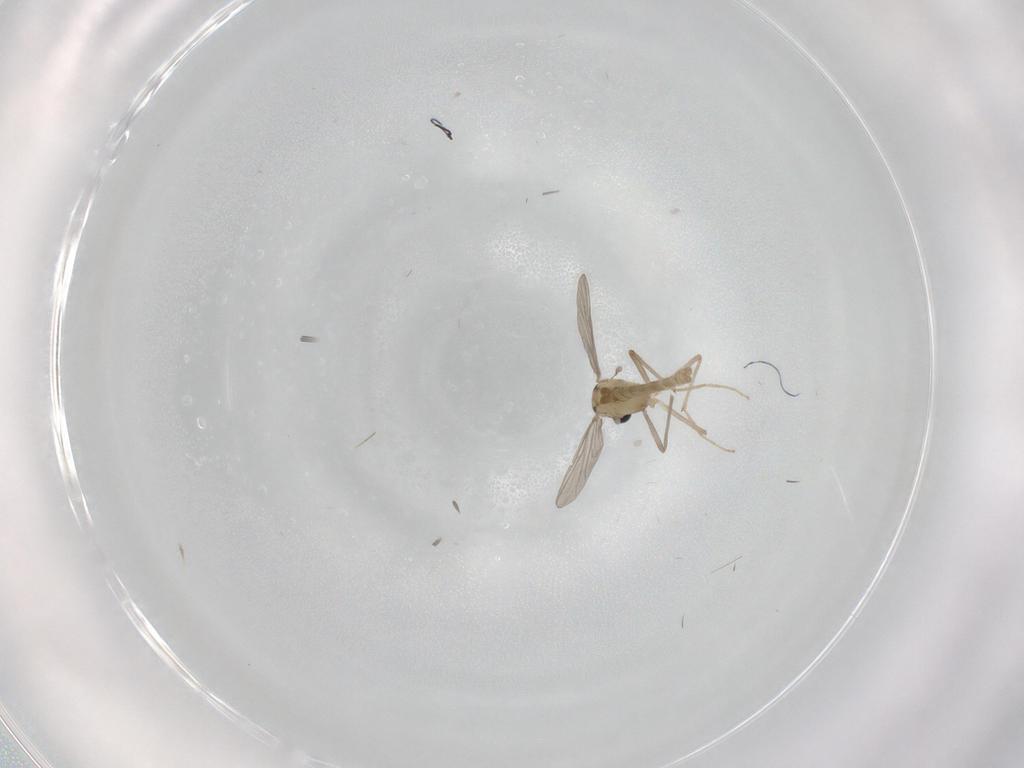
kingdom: Animalia
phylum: Arthropoda
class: Insecta
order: Diptera
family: Chironomidae
